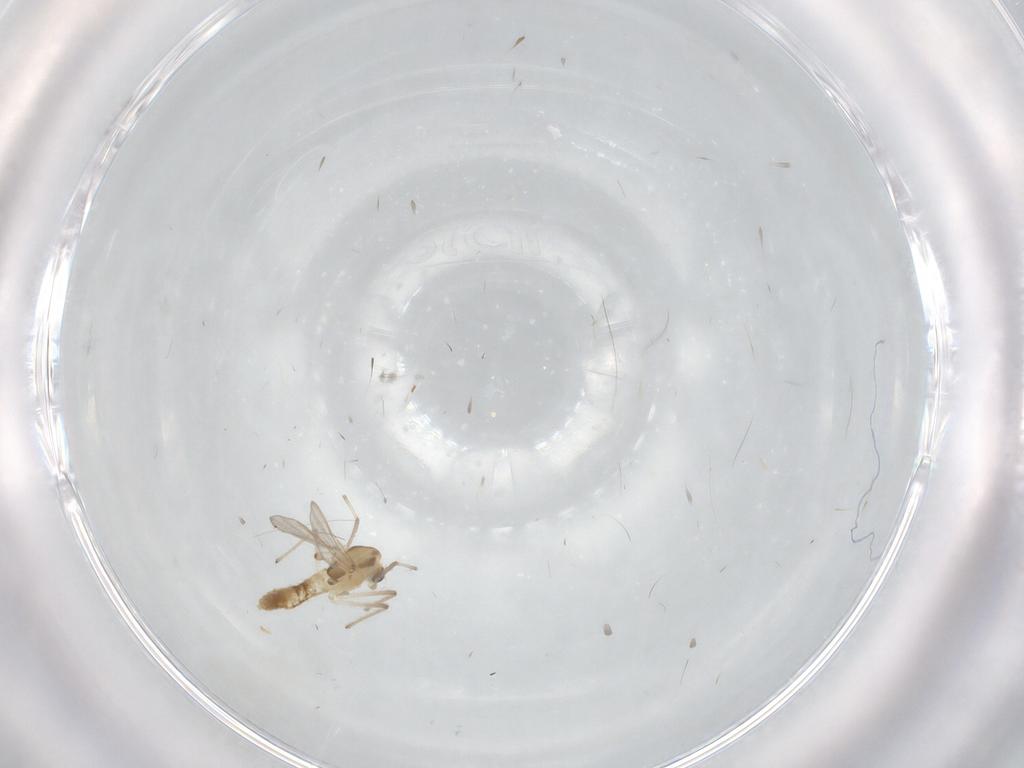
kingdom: Animalia
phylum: Arthropoda
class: Insecta
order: Diptera
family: Chironomidae
